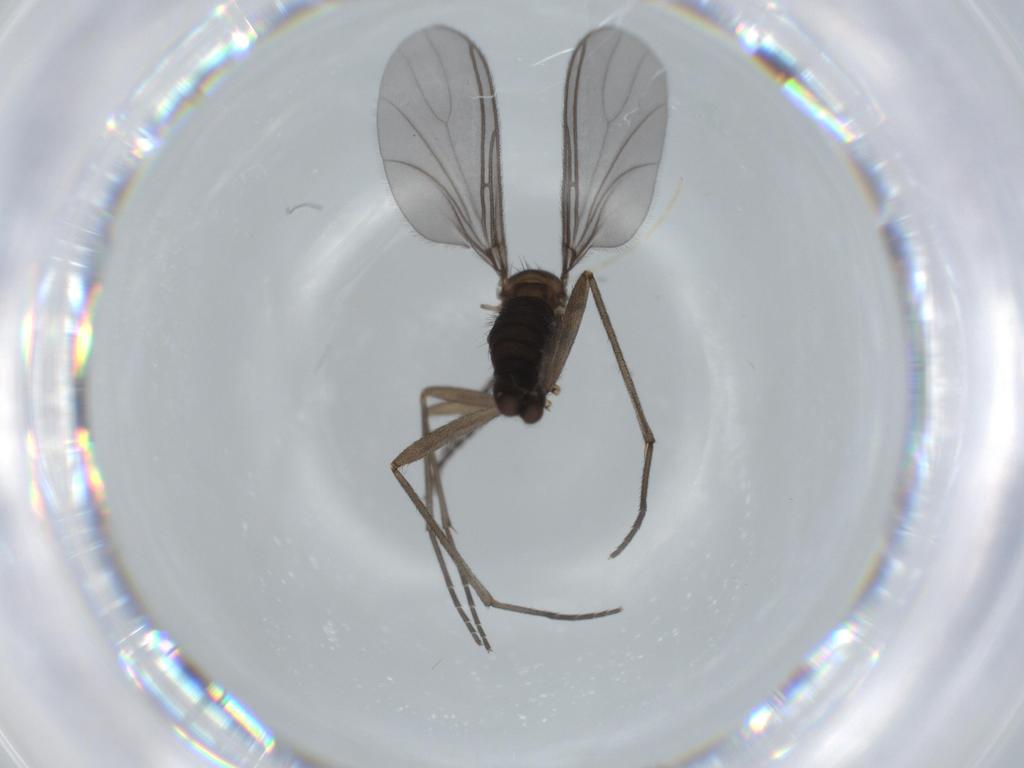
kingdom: Animalia
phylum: Arthropoda
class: Insecta
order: Diptera
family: Sciaridae
